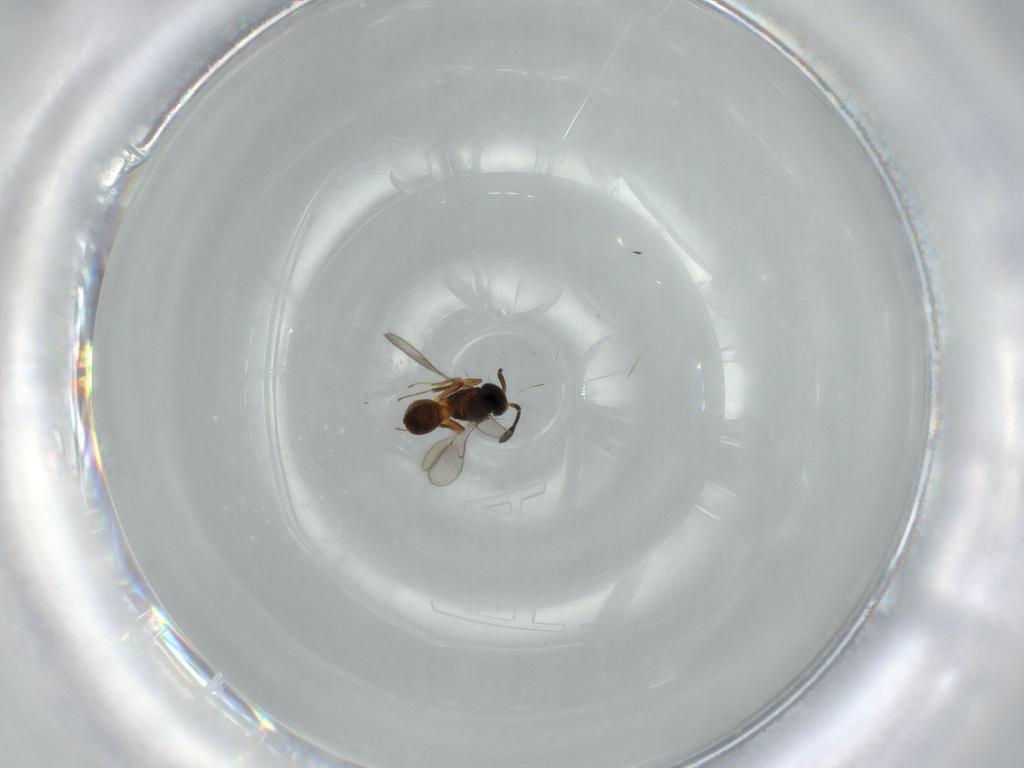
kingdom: Animalia
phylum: Arthropoda
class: Insecta
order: Hymenoptera
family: Scelionidae
